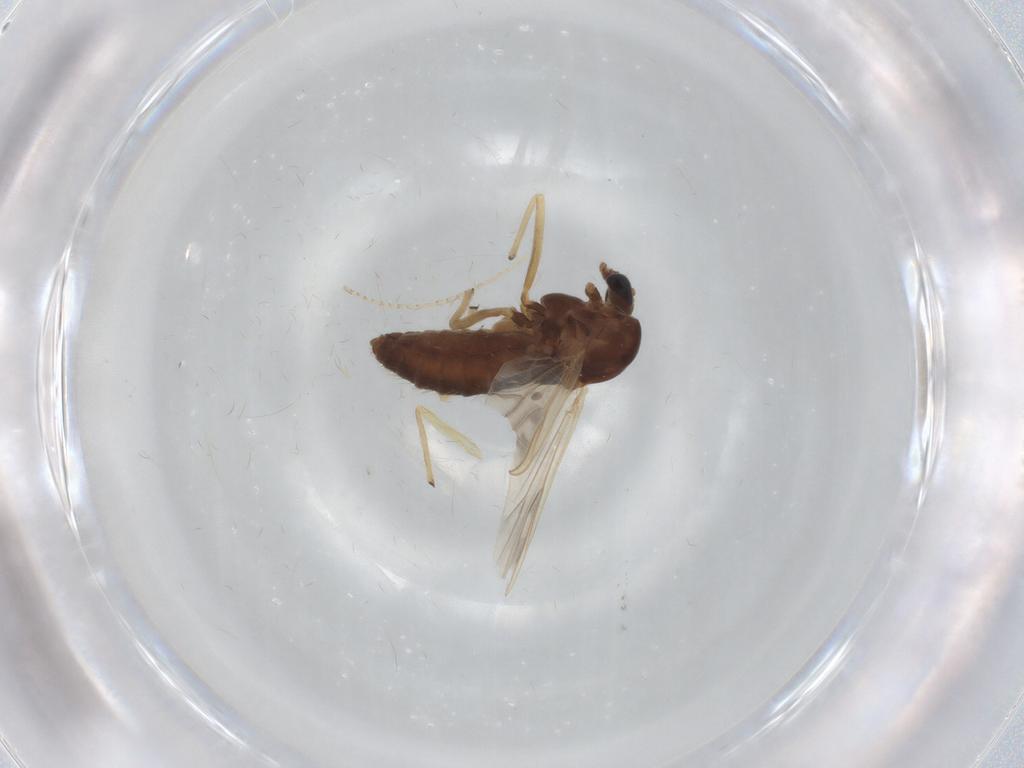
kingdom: Animalia
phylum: Arthropoda
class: Insecta
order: Diptera
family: Chironomidae
